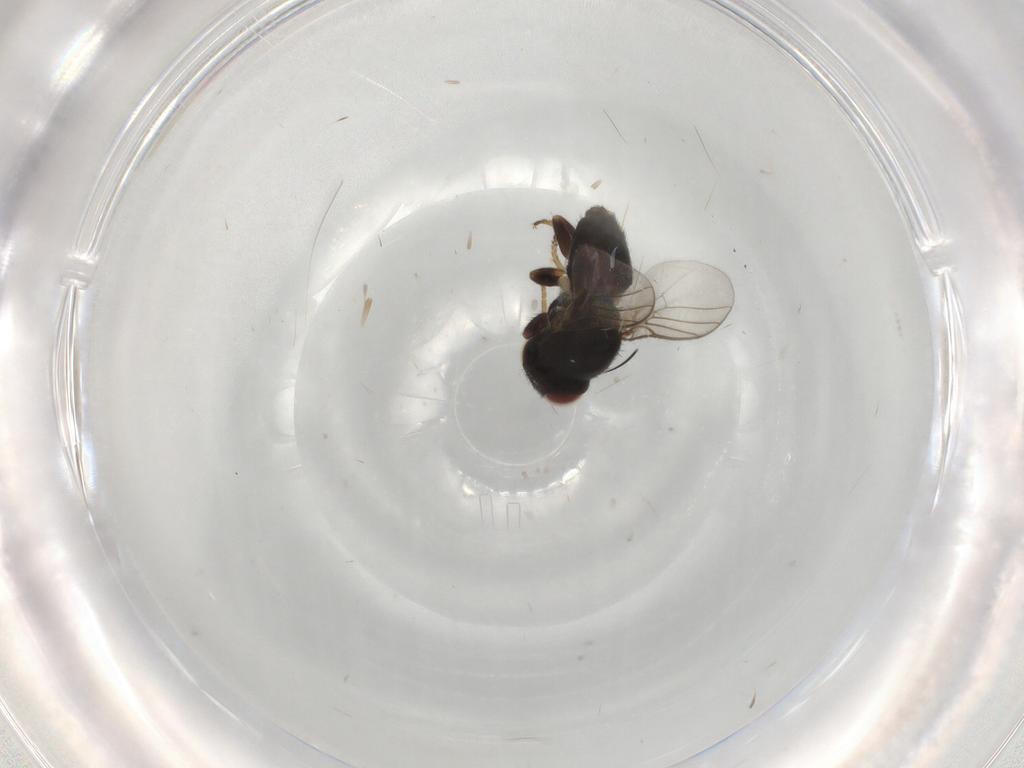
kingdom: Animalia
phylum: Arthropoda
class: Insecta
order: Diptera
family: Chloropidae
